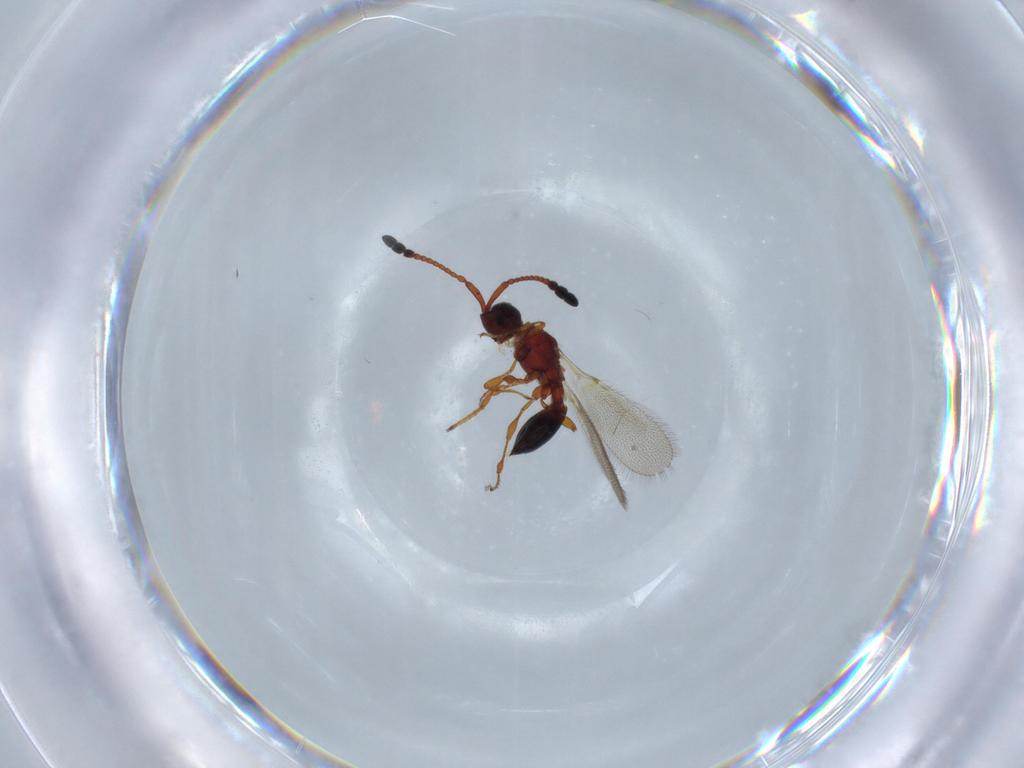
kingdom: Animalia
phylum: Arthropoda
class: Insecta
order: Hymenoptera
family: Diapriidae
